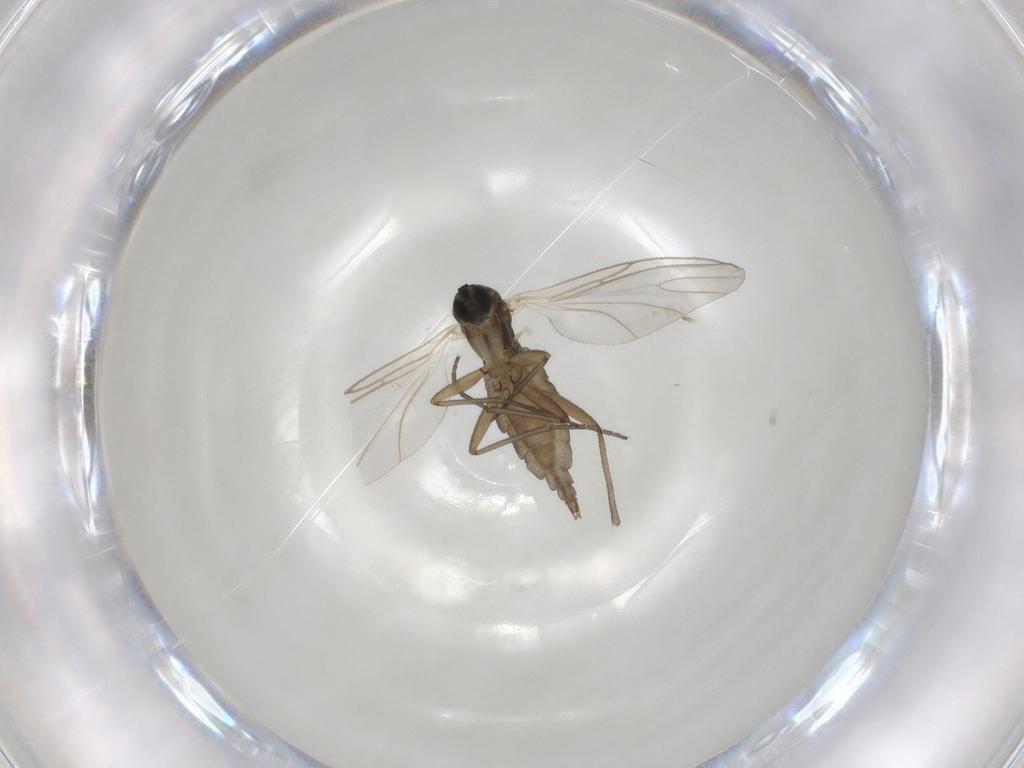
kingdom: Animalia
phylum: Arthropoda
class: Insecta
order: Diptera
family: Chironomidae
